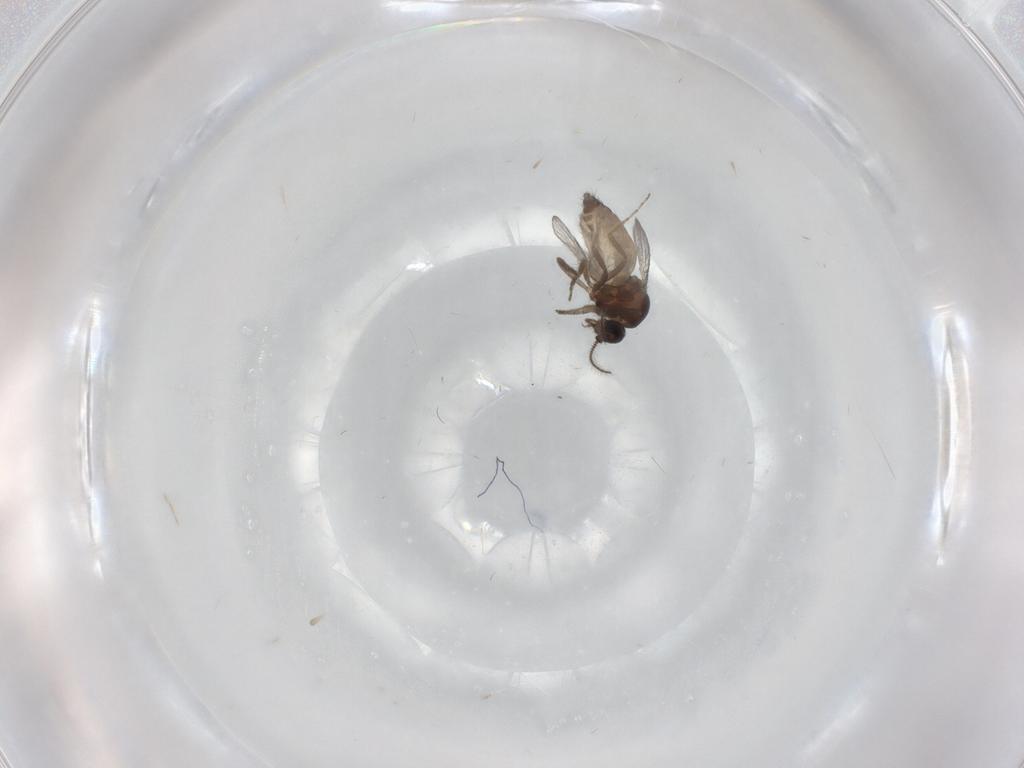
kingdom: Animalia
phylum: Arthropoda
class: Insecta
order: Diptera
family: Ceratopogonidae
